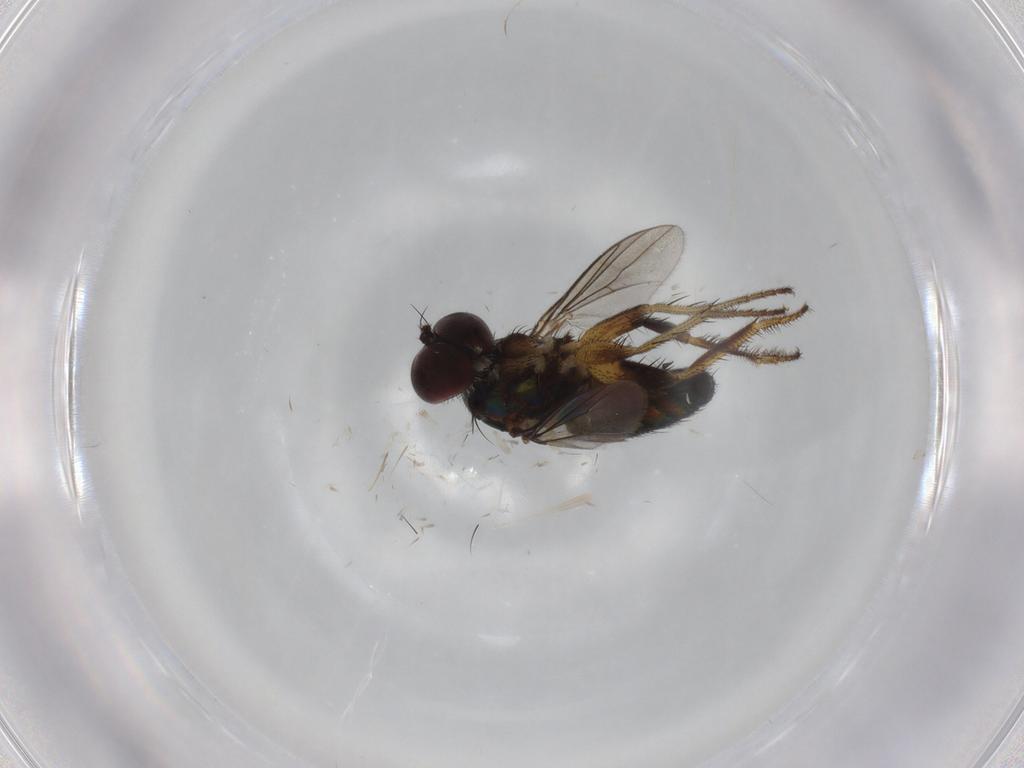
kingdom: Animalia
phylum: Arthropoda
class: Insecta
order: Diptera
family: Dolichopodidae
